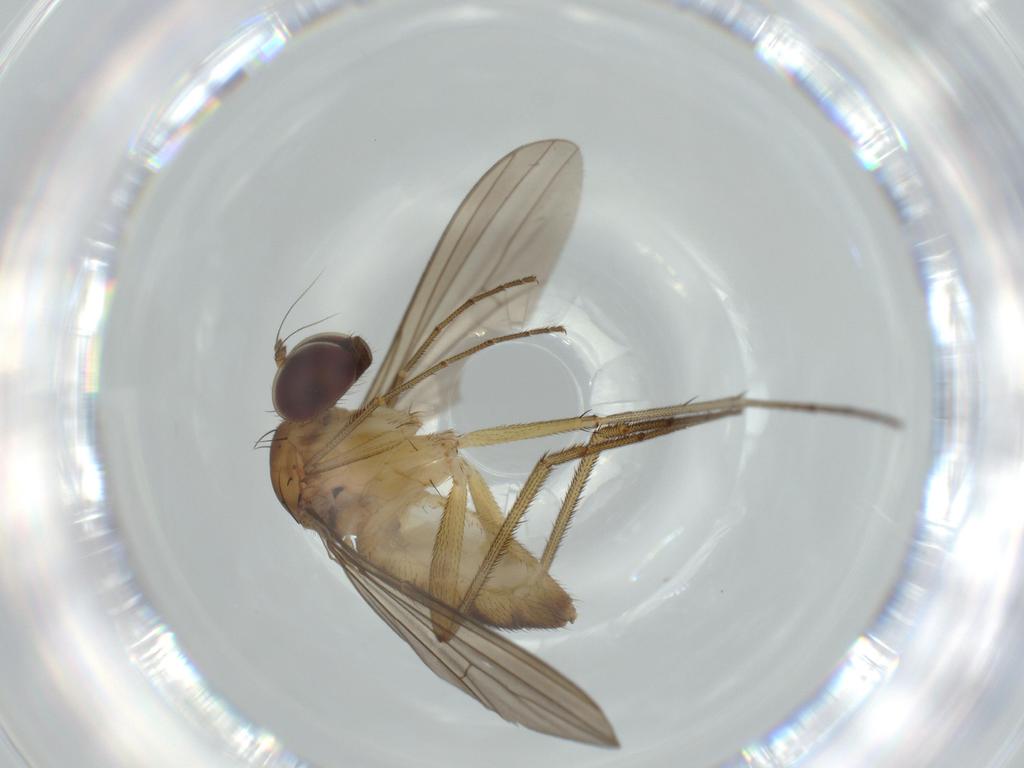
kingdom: Animalia
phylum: Arthropoda
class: Insecta
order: Diptera
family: Dolichopodidae
